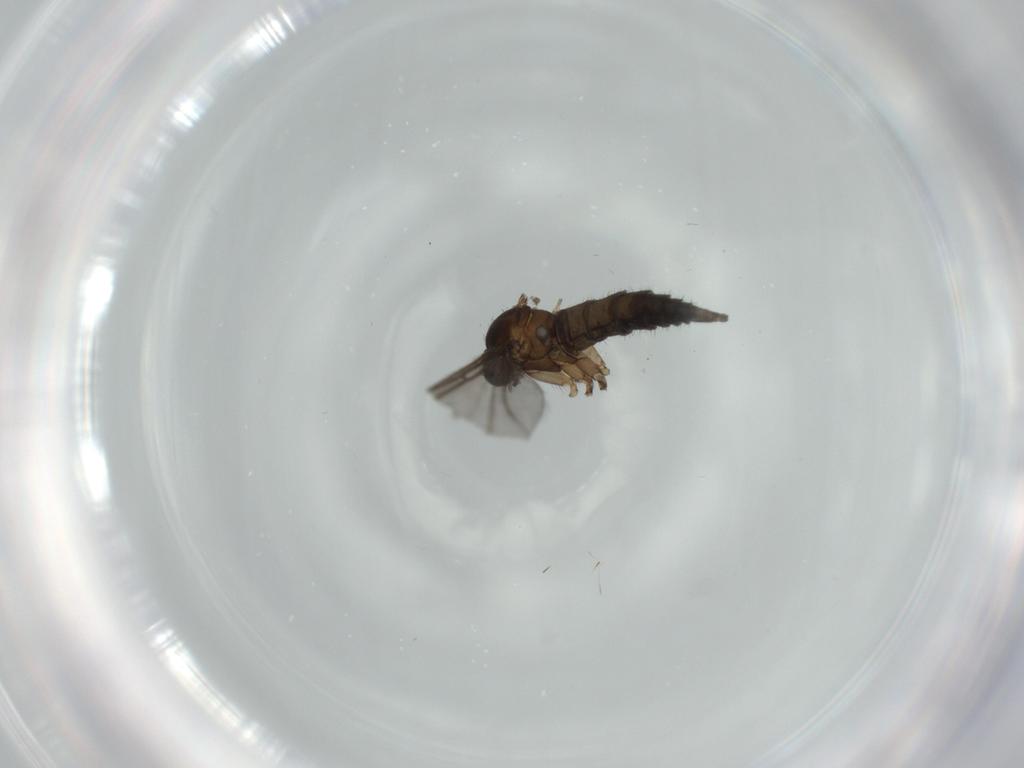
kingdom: Animalia
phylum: Arthropoda
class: Insecta
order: Diptera
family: Sciaridae
